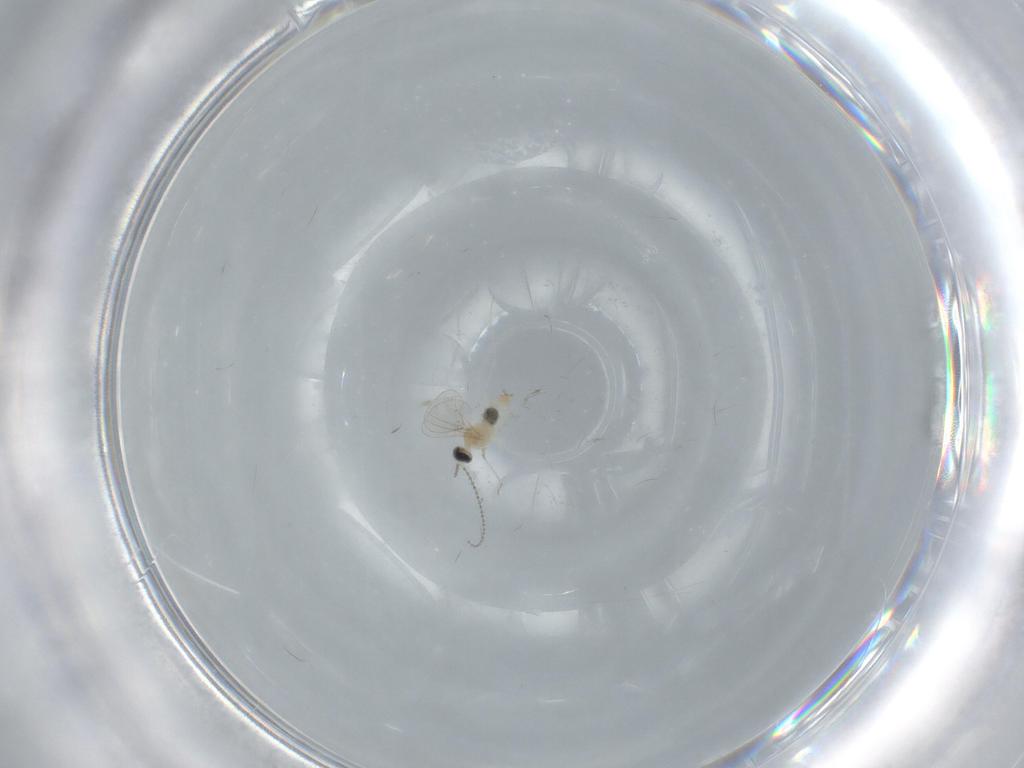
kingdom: Animalia
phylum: Arthropoda
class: Insecta
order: Diptera
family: Cecidomyiidae
